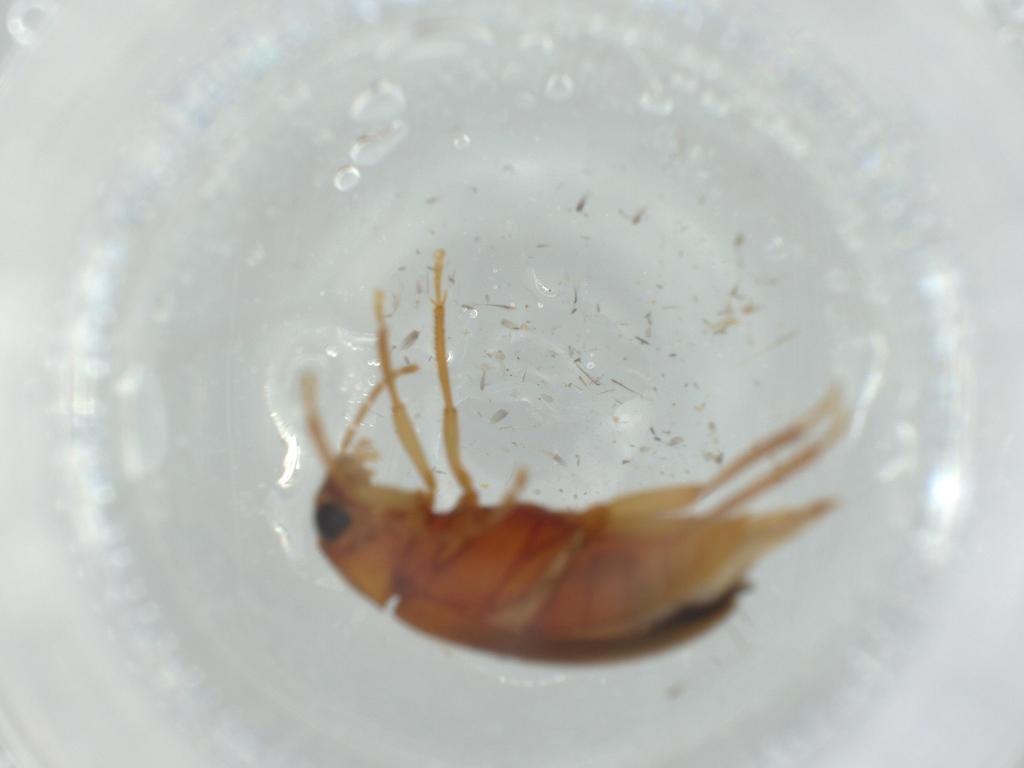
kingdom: Animalia
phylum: Arthropoda
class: Insecta
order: Coleoptera
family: Ptilodactylidae
